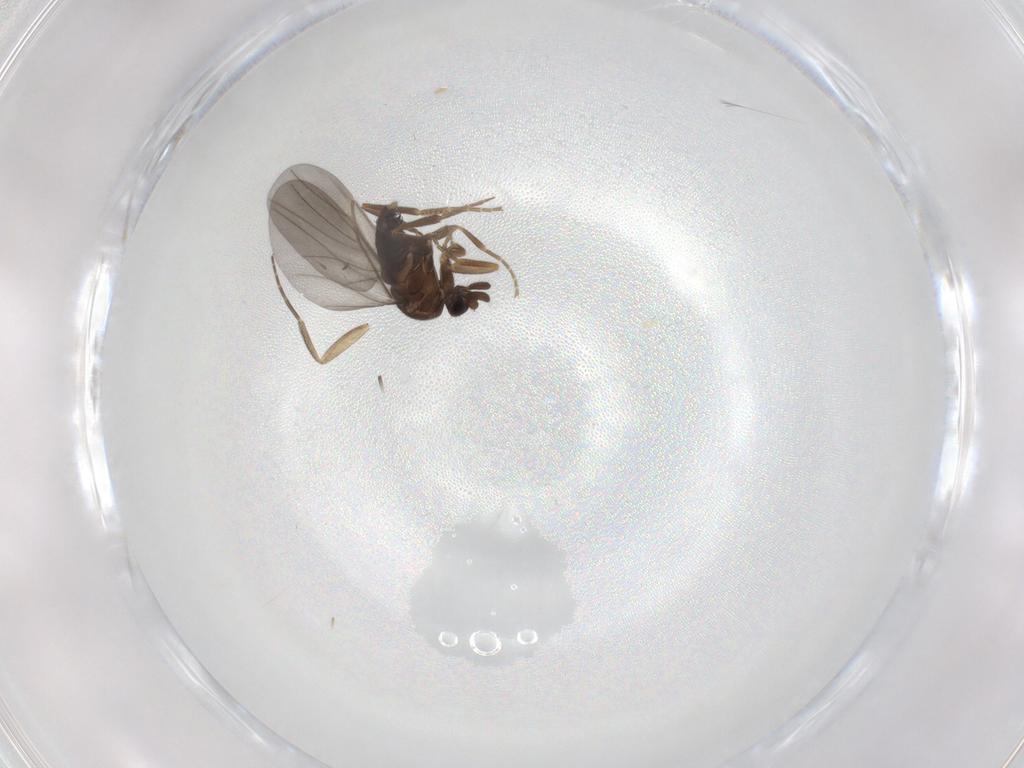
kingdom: Animalia
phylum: Arthropoda
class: Insecta
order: Diptera
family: Phoridae
